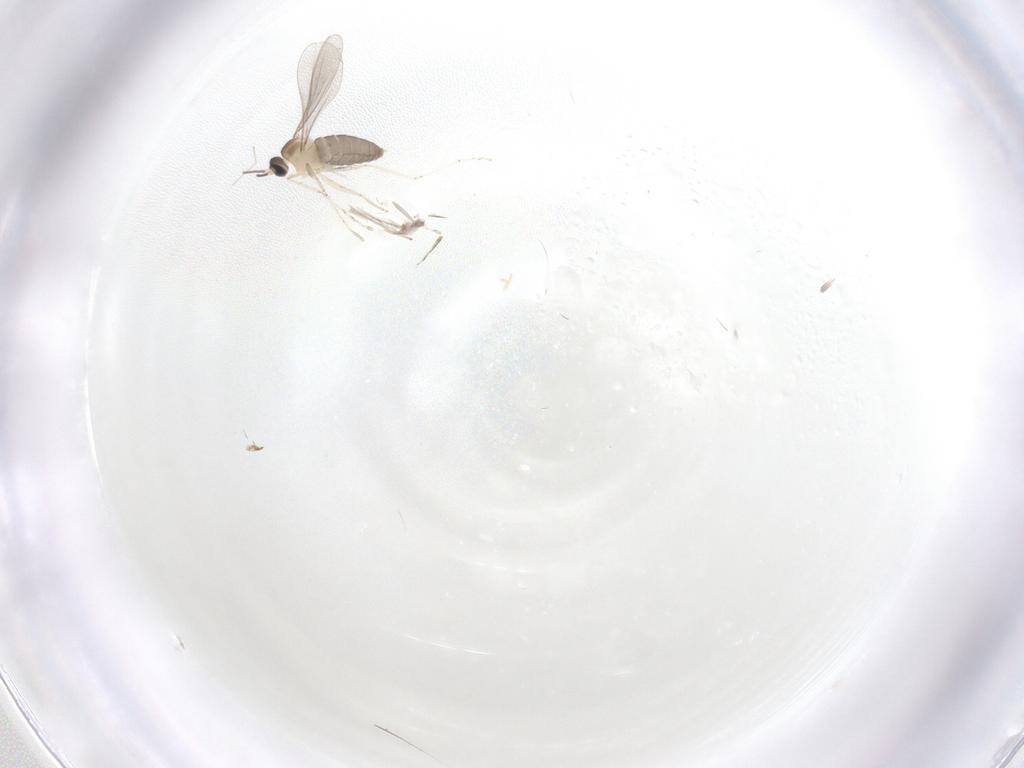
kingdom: Animalia
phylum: Arthropoda
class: Insecta
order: Diptera
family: Cecidomyiidae
